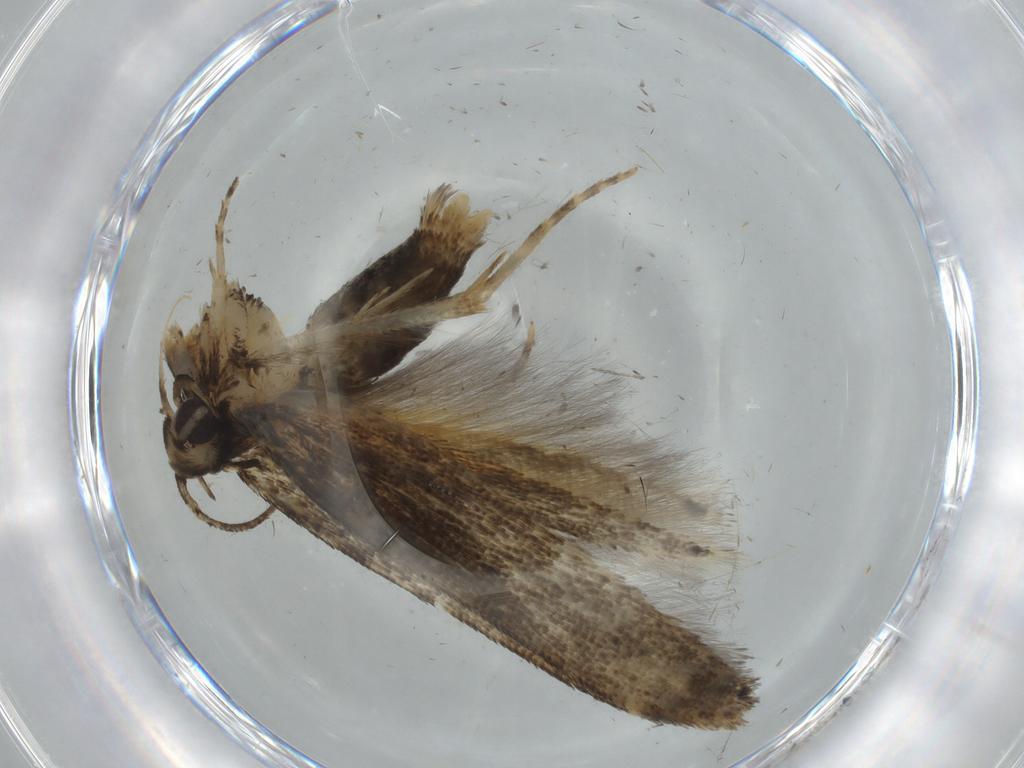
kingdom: Animalia
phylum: Arthropoda
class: Insecta
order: Lepidoptera
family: Cosmopterigidae
